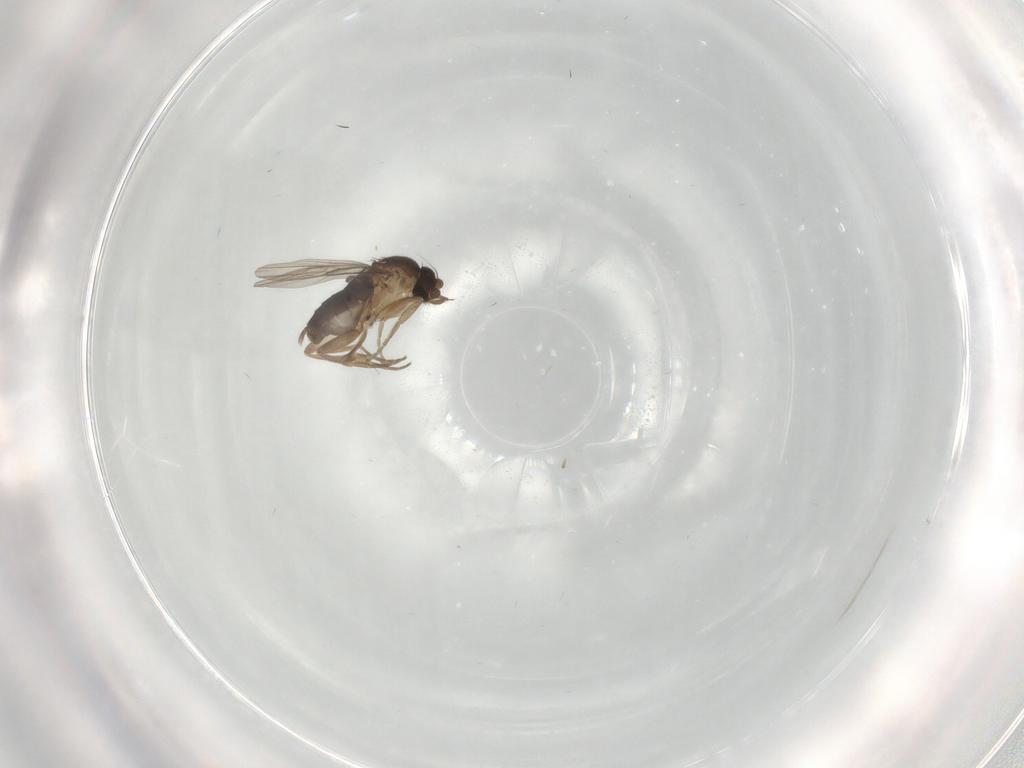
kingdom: Animalia
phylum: Arthropoda
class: Insecta
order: Diptera
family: Phoridae
